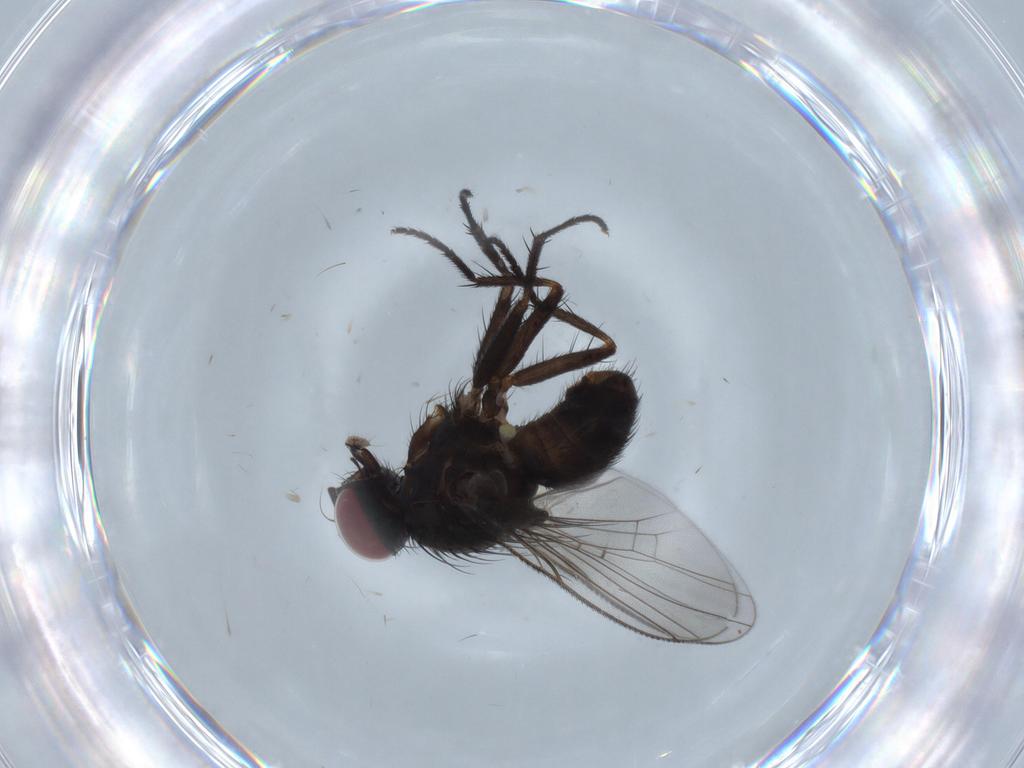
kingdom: Animalia
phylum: Arthropoda
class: Insecta
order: Diptera
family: Muscidae
